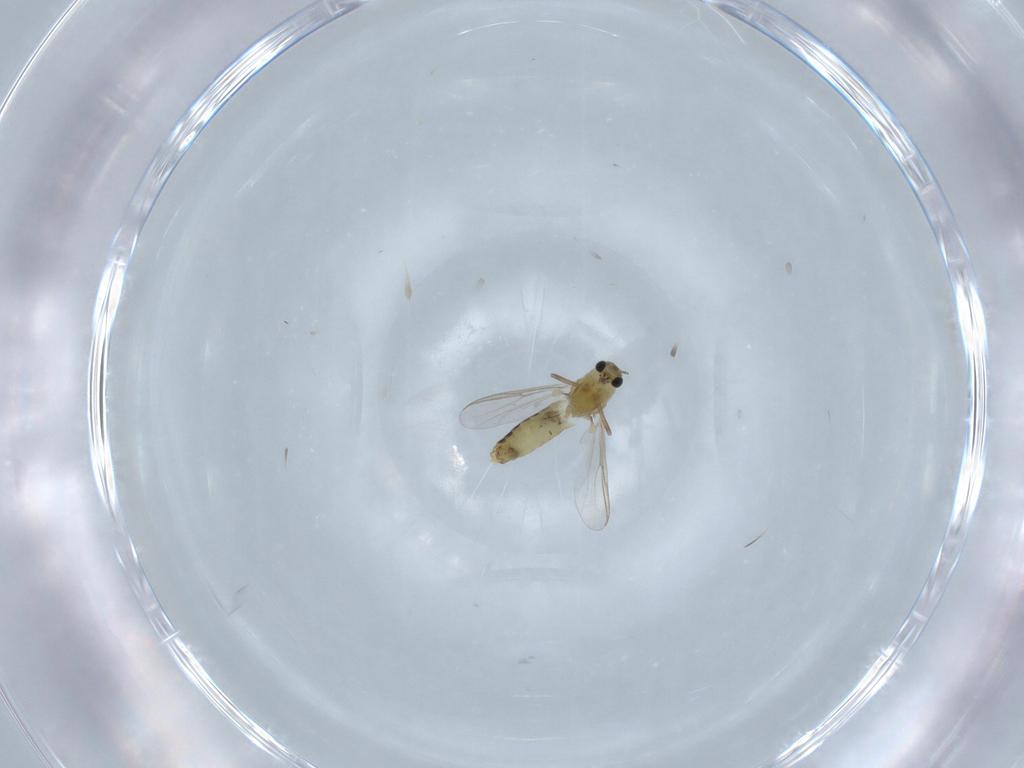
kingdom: Animalia
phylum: Arthropoda
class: Insecta
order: Diptera
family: Chironomidae
